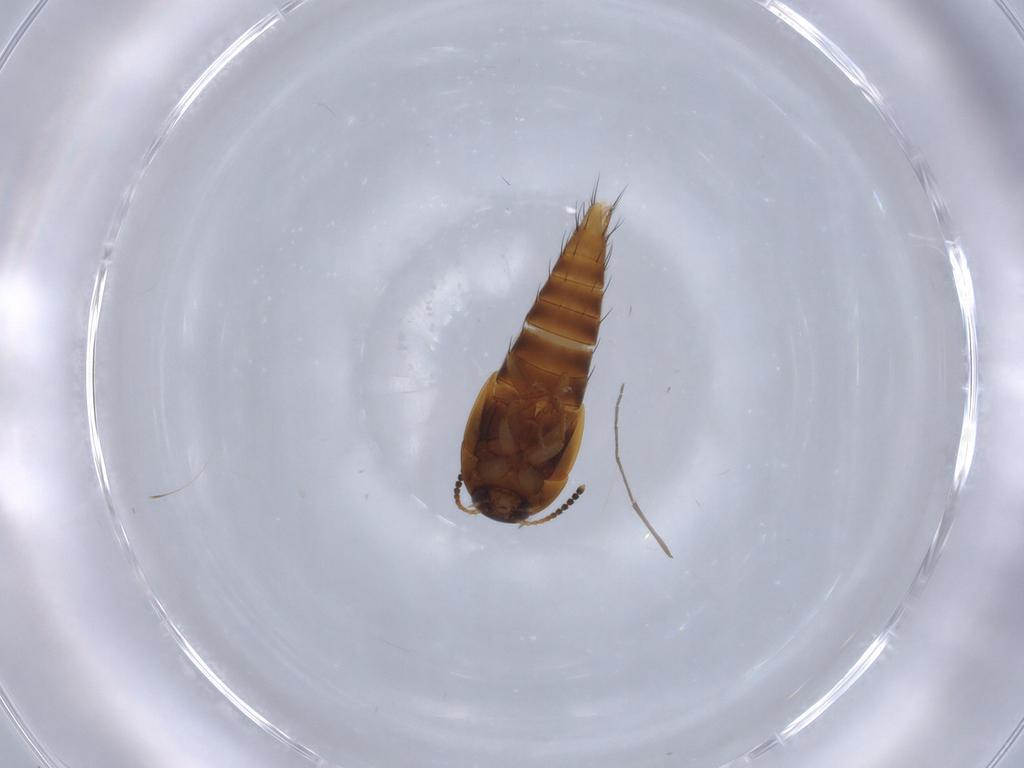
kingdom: Animalia
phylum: Arthropoda
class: Insecta
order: Coleoptera
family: Staphylinidae
